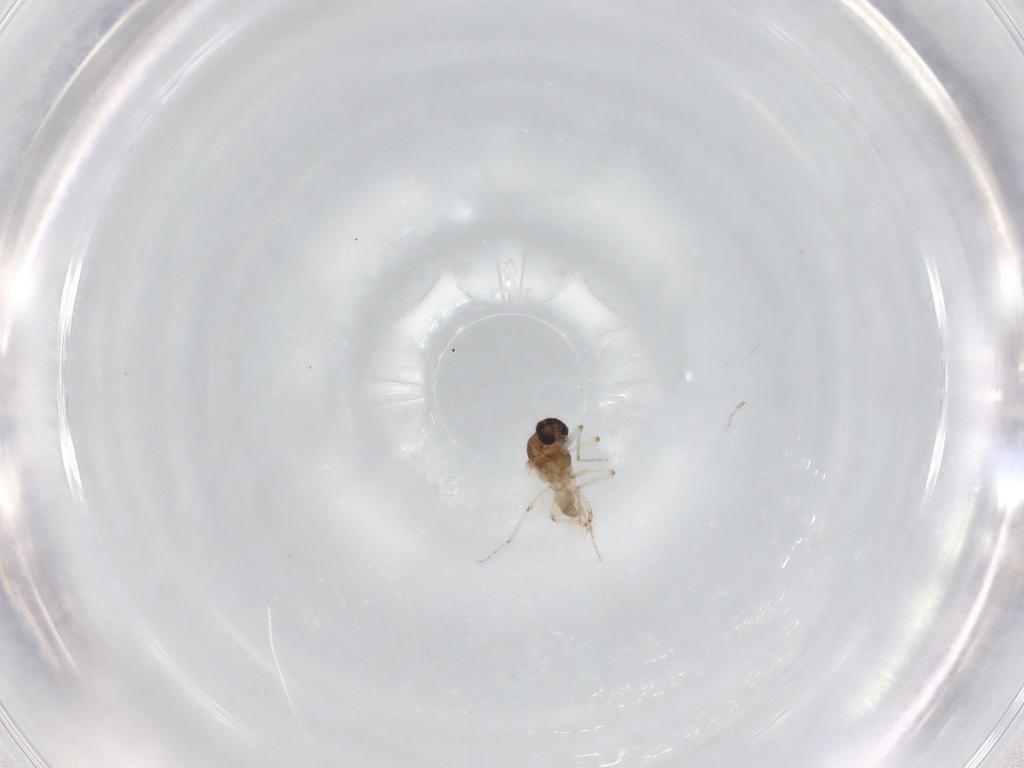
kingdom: Animalia
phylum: Arthropoda
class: Insecta
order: Diptera
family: Ceratopogonidae
